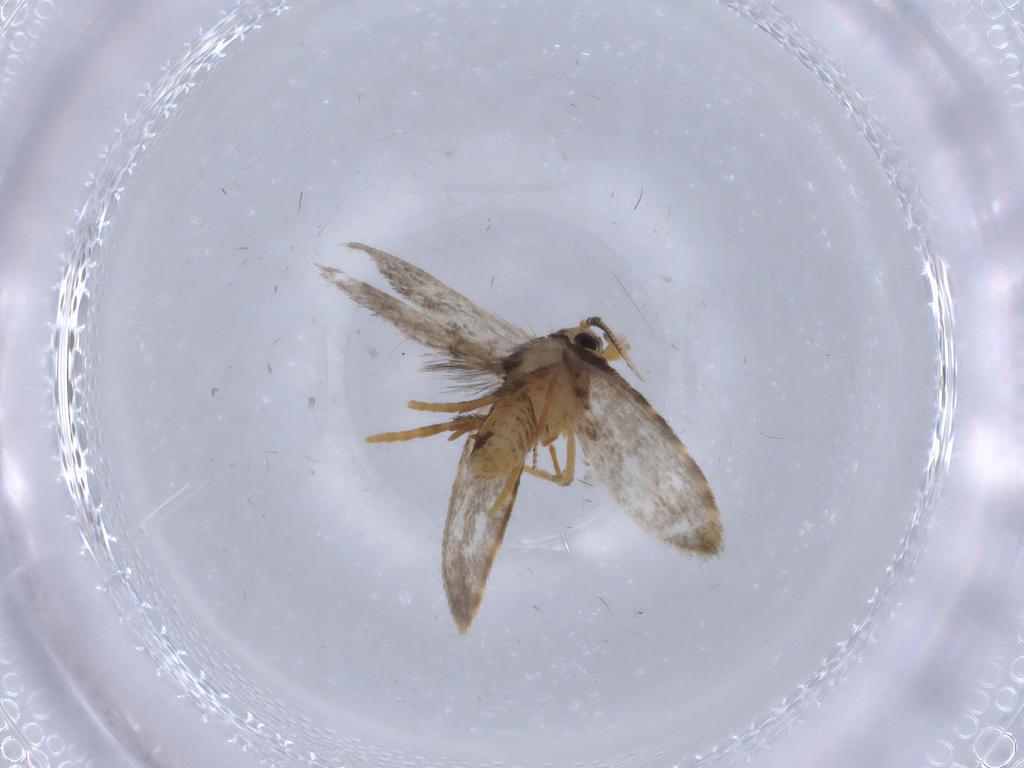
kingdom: Animalia
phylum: Arthropoda
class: Insecta
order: Lepidoptera
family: Psychidae
